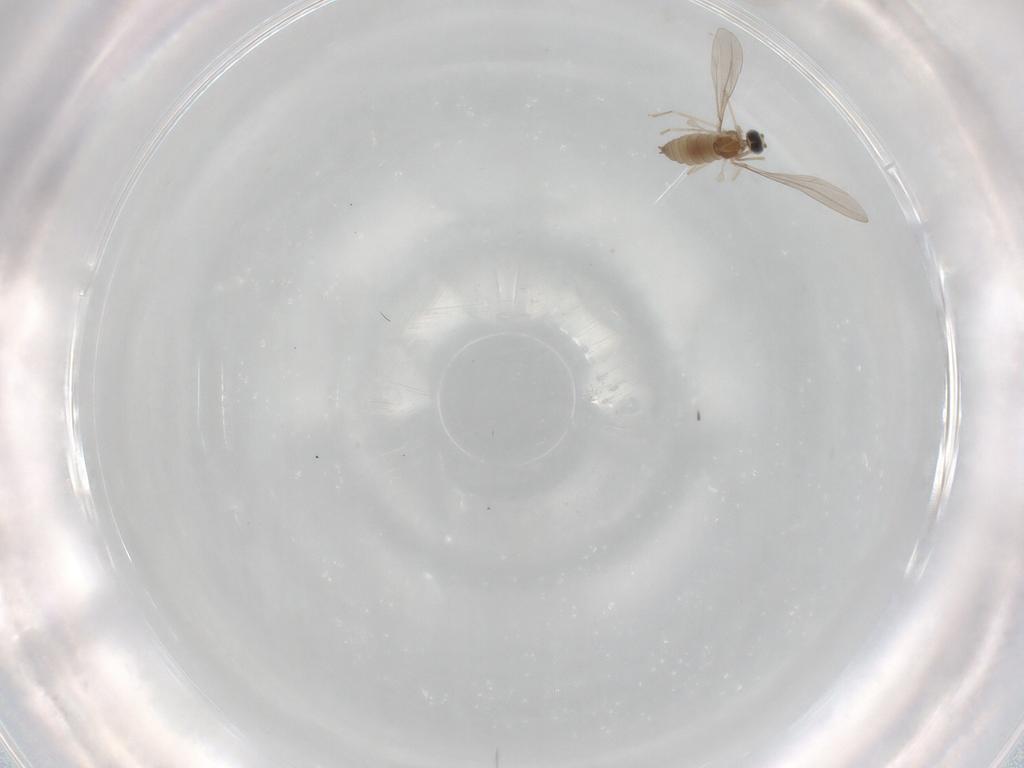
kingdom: Animalia
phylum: Arthropoda
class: Insecta
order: Diptera
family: Cecidomyiidae
